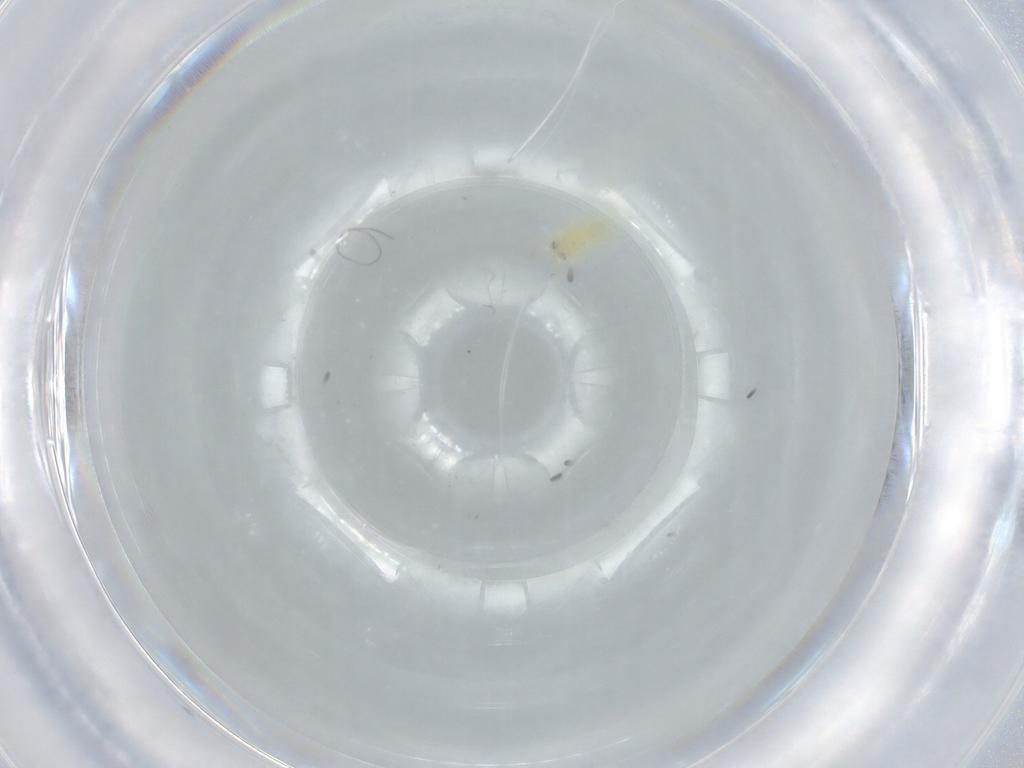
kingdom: Animalia
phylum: Arthropoda
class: Insecta
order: Hemiptera
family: Aleyrodidae
